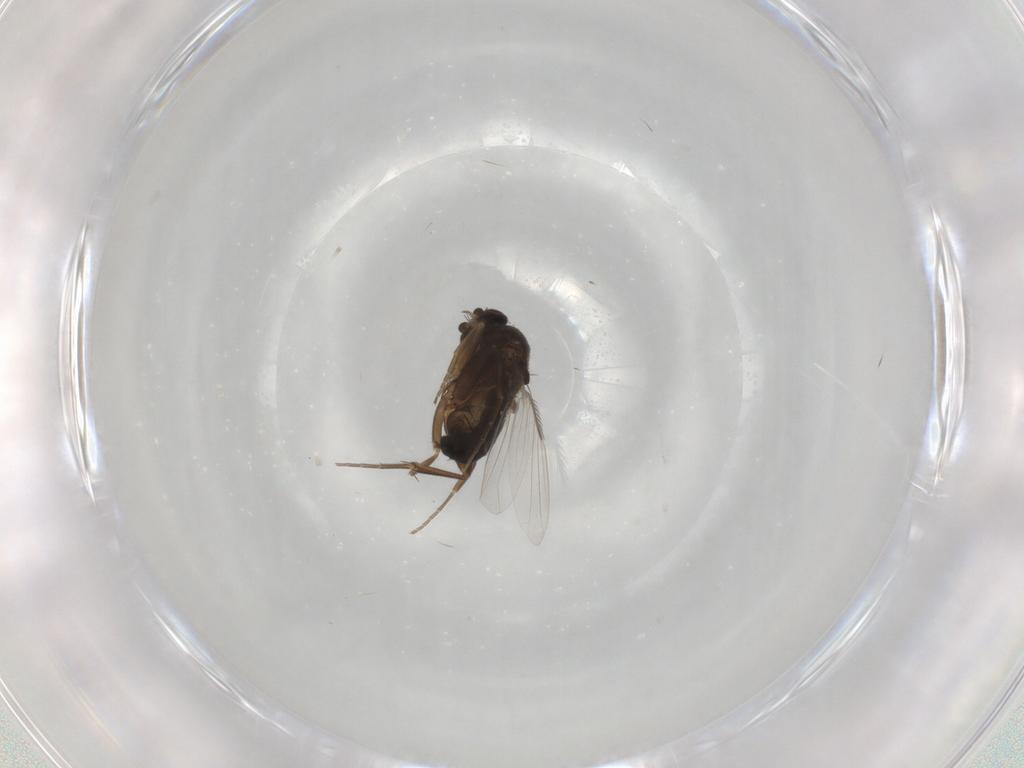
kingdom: Animalia
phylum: Arthropoda
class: Insecta
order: Diptera
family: Phoridae
